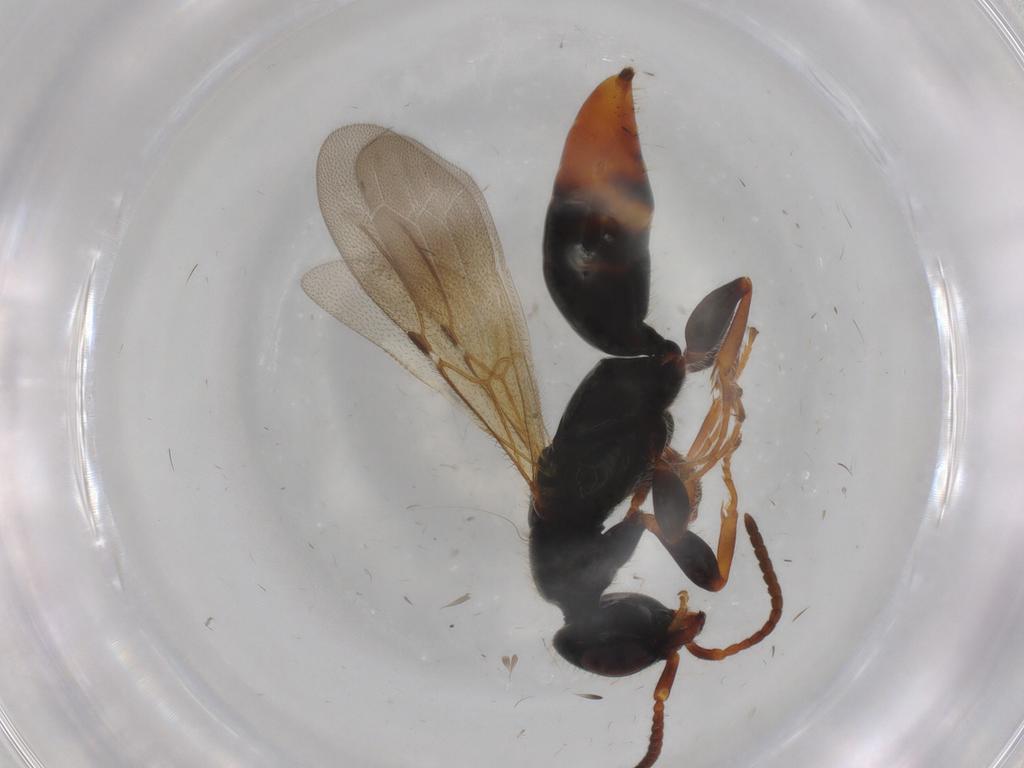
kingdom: Animalia
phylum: Arthropoda
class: Insecta
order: Hymenoptera
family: Bethylidae
